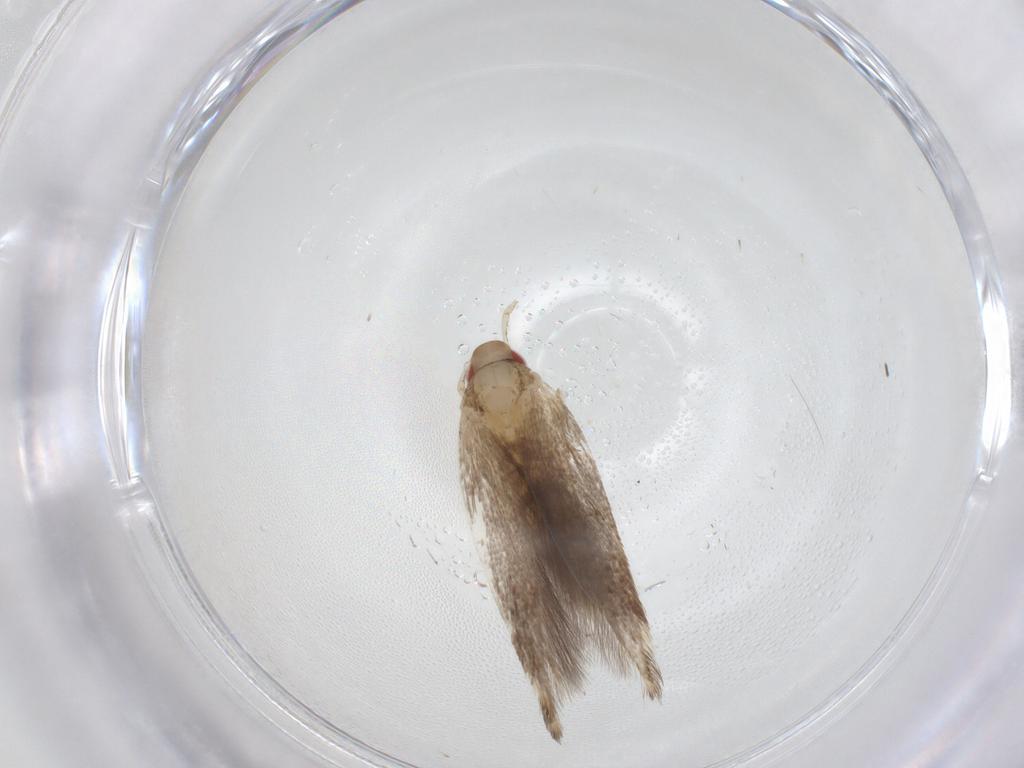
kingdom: Animalia
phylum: Arthropoda
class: Insecta
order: Lepidoptera
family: Cosmopterigidae
